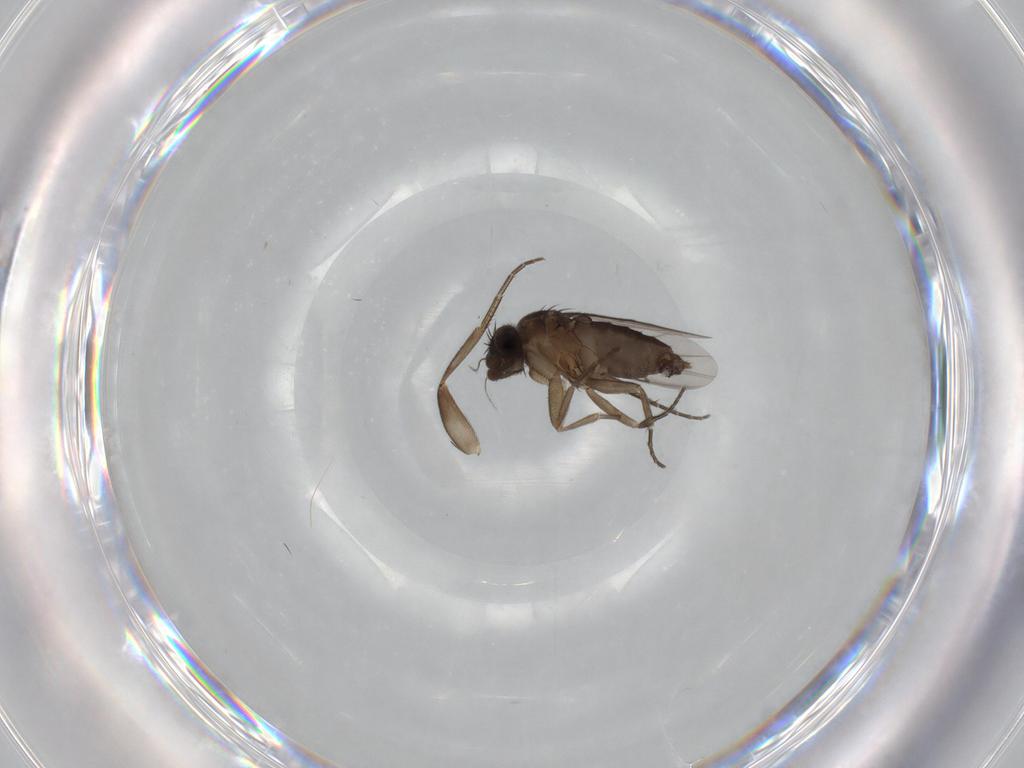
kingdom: Animalia
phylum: Arthropoda
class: Insecta
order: Diptera
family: Phoridae
